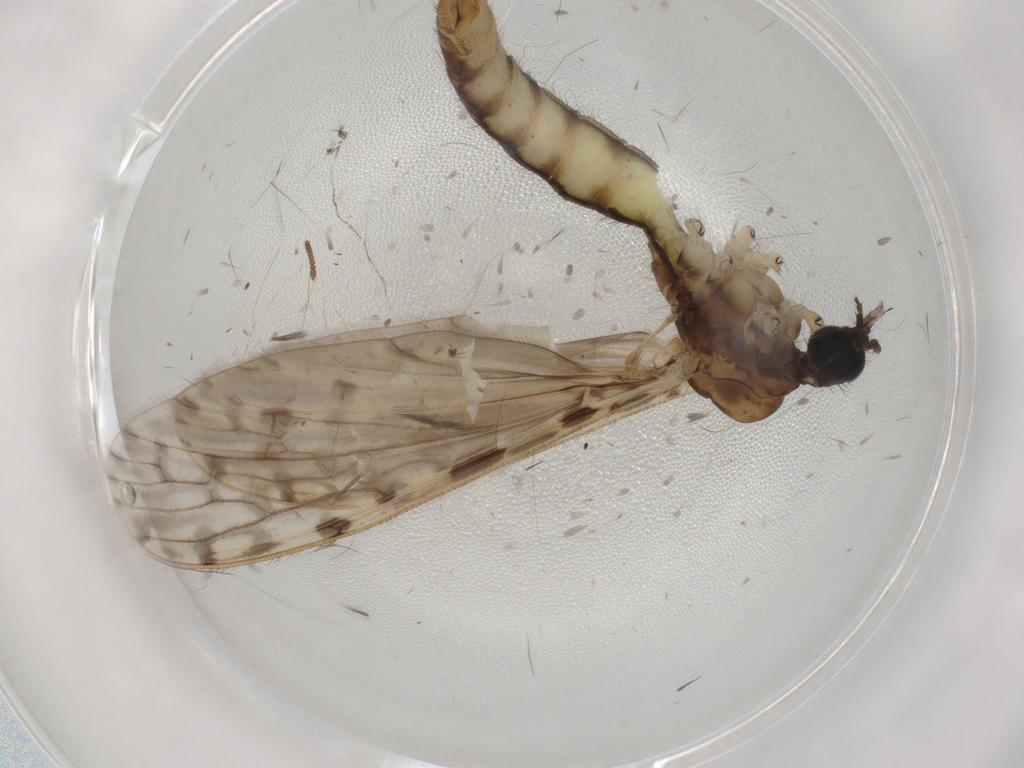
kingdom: Animalia
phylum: Arthropoda
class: Insecta
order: Diptera
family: Limoniidae
